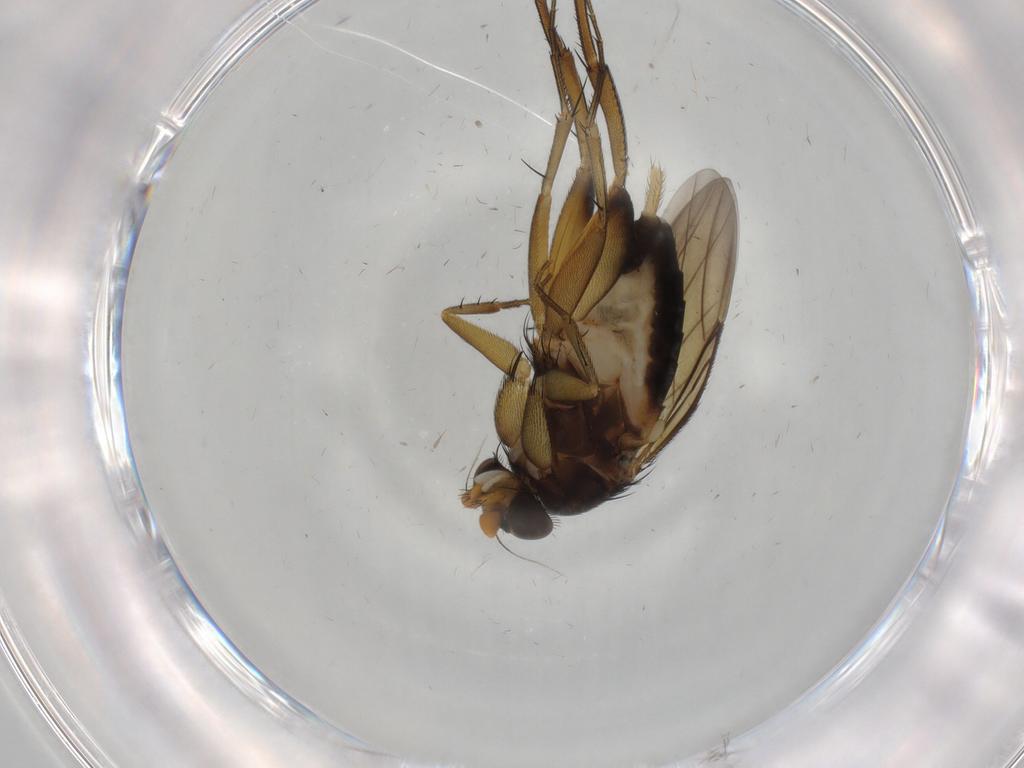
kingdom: Animalia
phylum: Arthropoda
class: Insecta
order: Diptera
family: Phoridae
